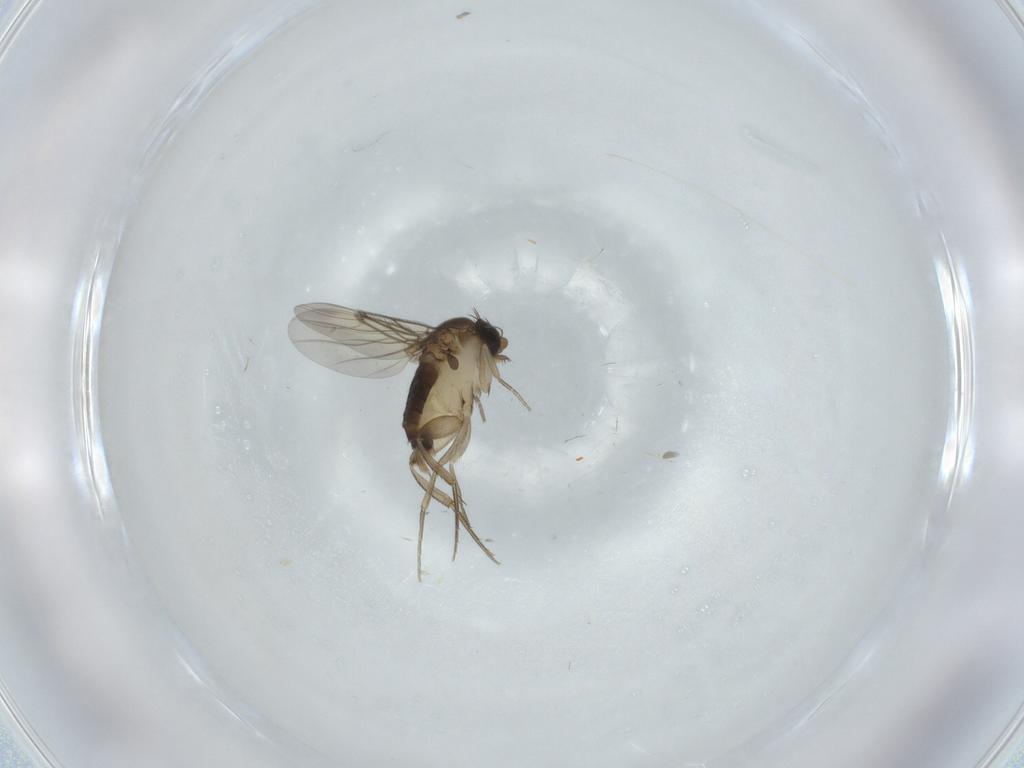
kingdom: Animalia
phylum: Arthropoda
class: Insecta
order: Diptera
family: Phoridae
